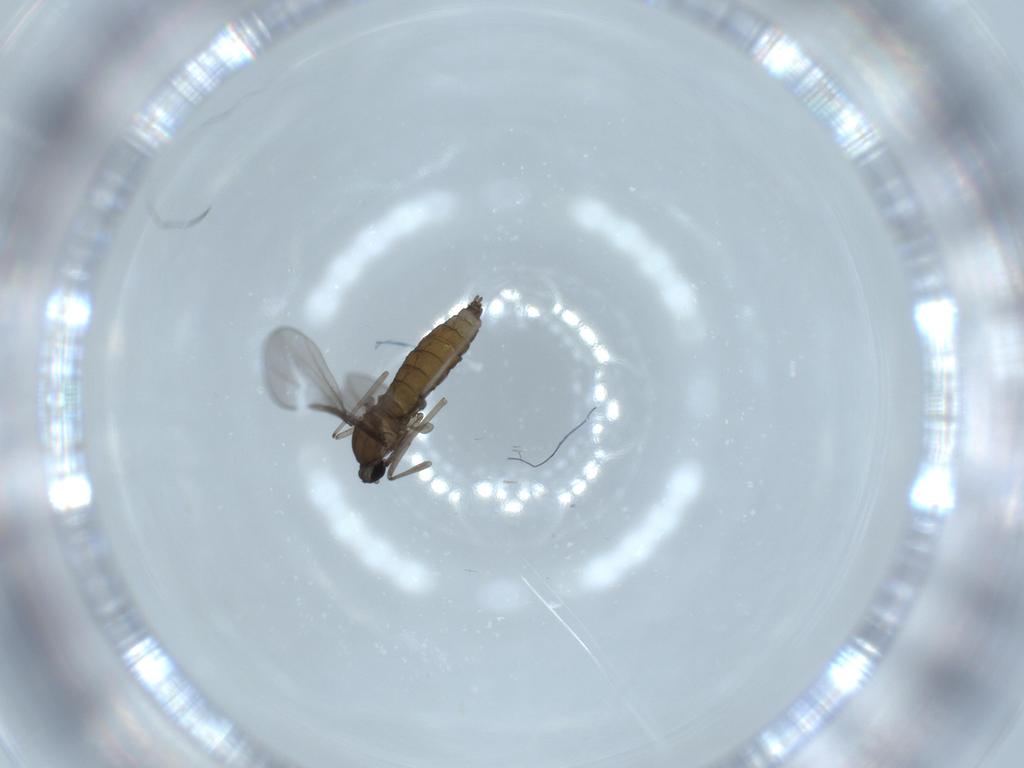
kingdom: Animalia
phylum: Arthropoda
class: Insecta
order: Diptera
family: Cecidomyiidae
